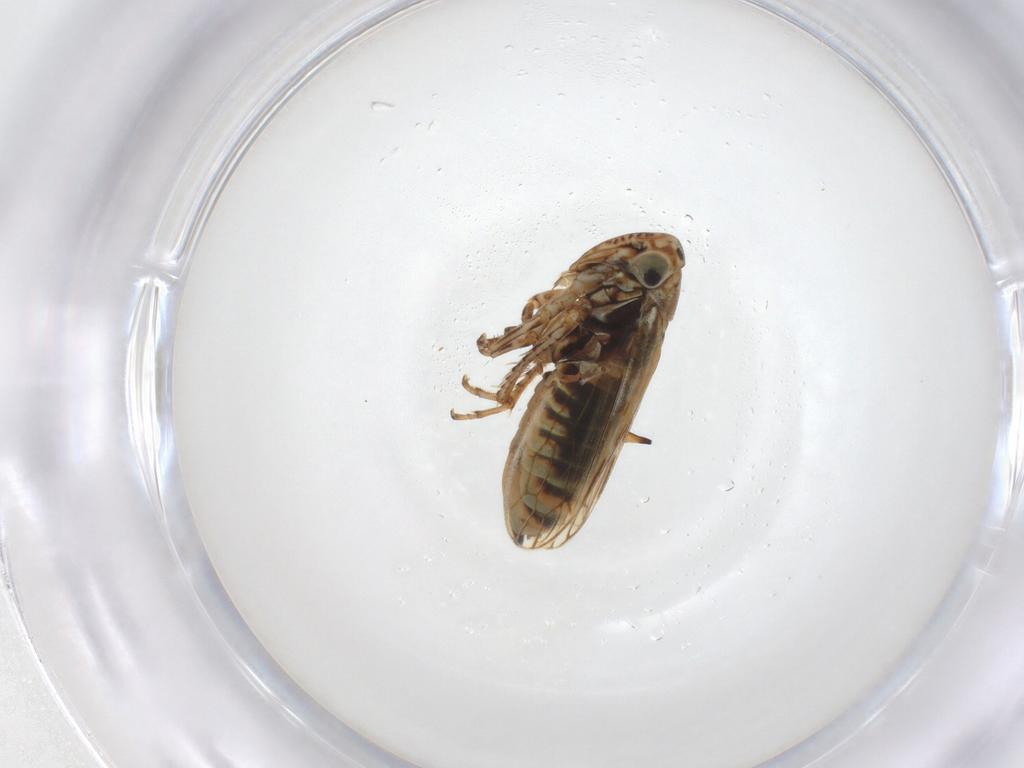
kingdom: Animalia
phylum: Arthropoda
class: Insecta
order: Hemiptera
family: Cicadellidae
